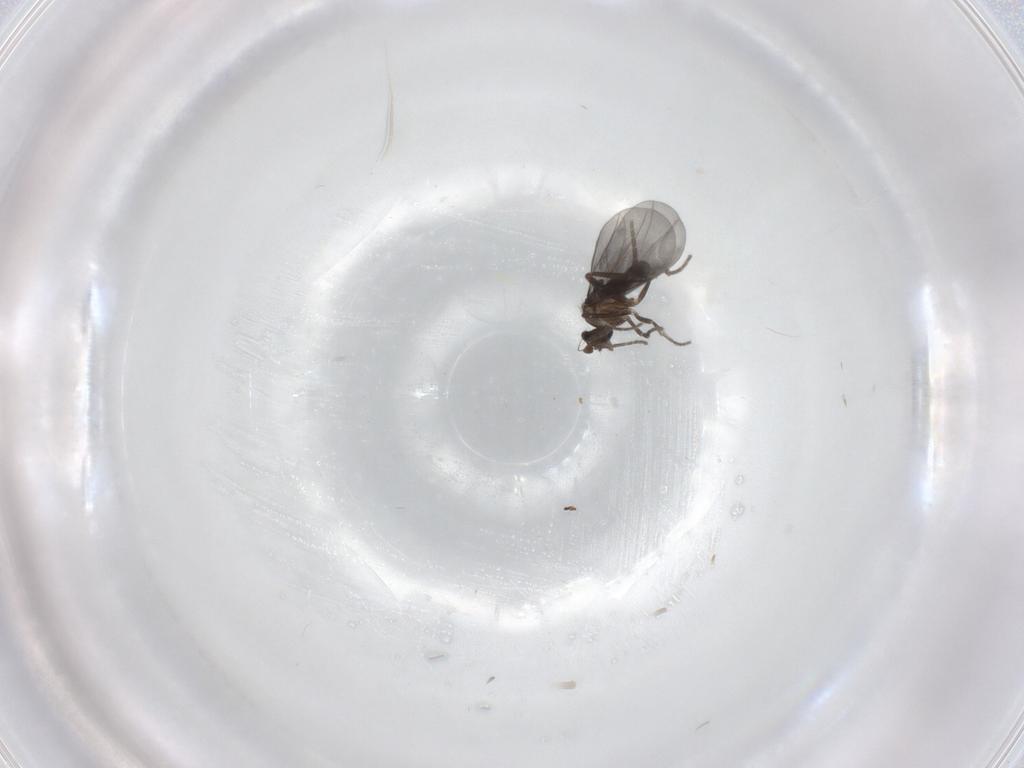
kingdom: Animalia
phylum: Arthropoda
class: Insecta
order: Diptera
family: Phoridae
